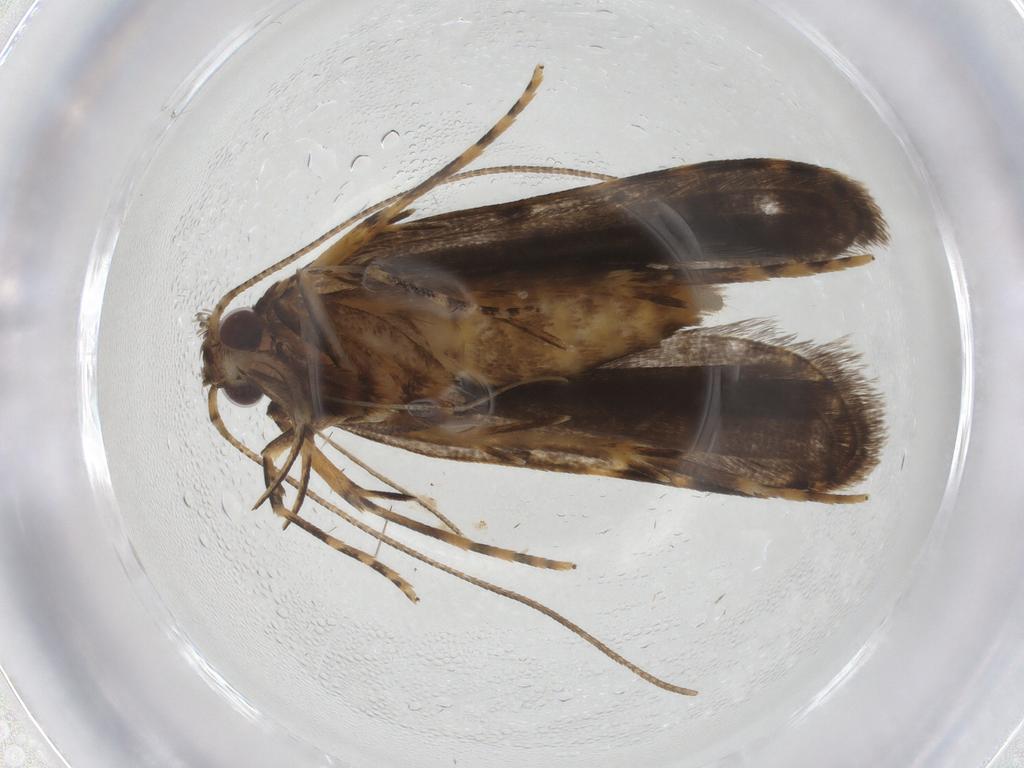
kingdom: Animalia
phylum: Arthropoda
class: Insecta
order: Lepidoptera
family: Autostichidae
